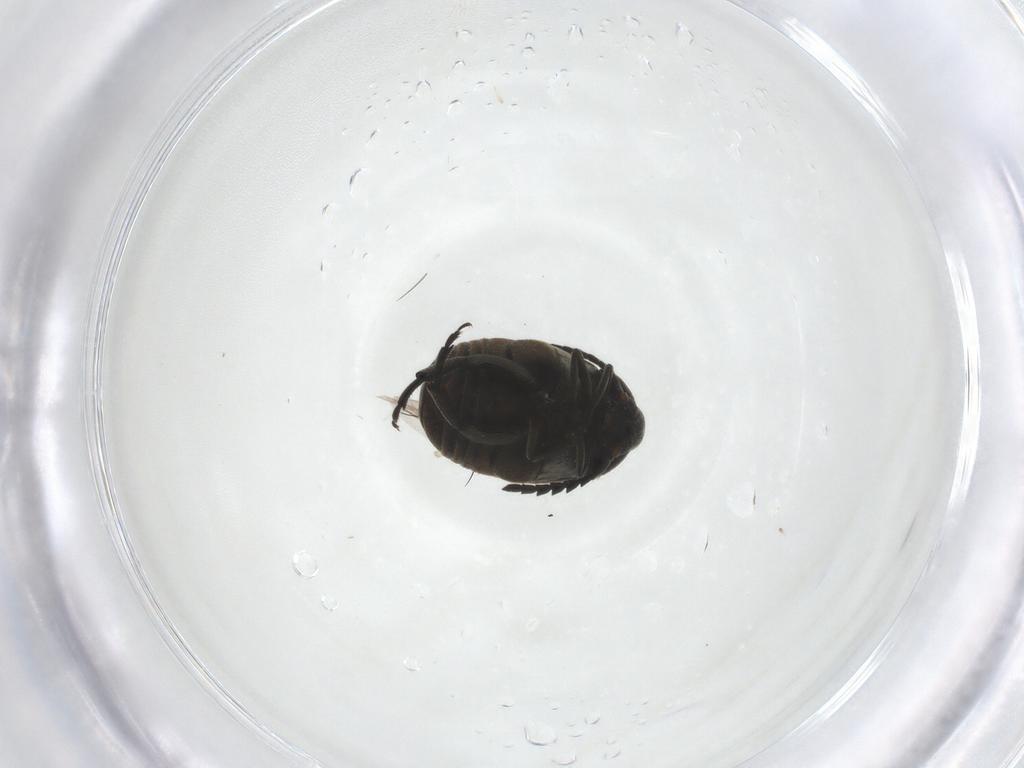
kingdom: Animalia
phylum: Arthropoda
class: Insecta
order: Coleoptera
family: Chrysomelidae
